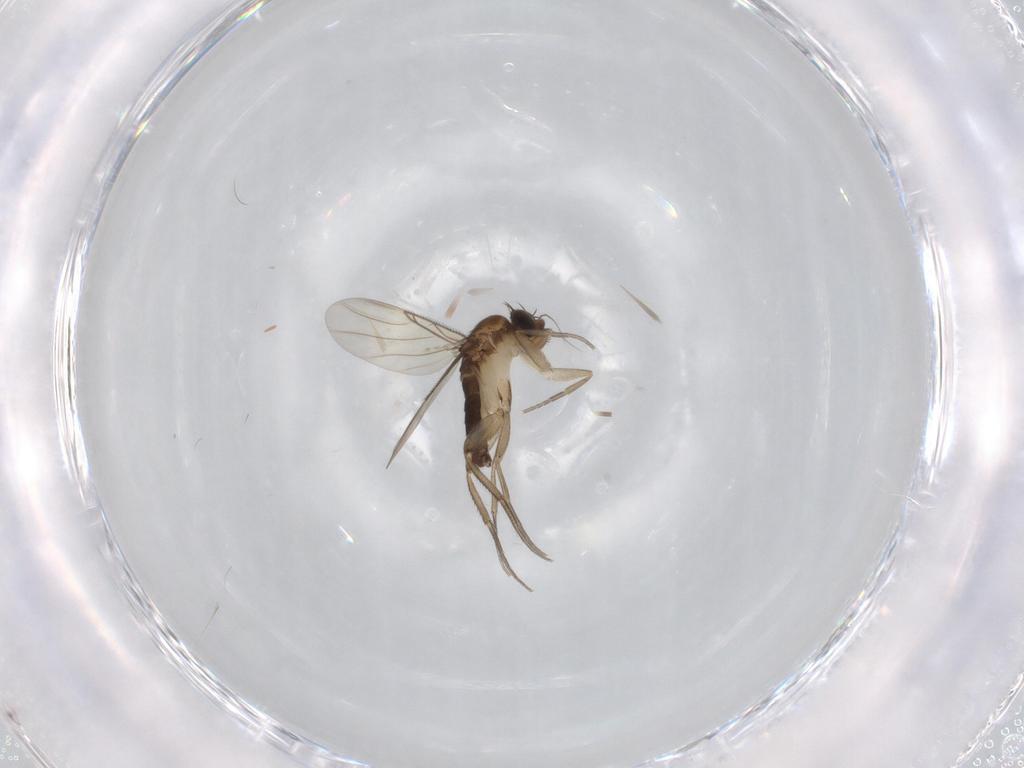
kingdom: Animalia
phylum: Arthropoda
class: Insecta
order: Diptera
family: Phoridae
